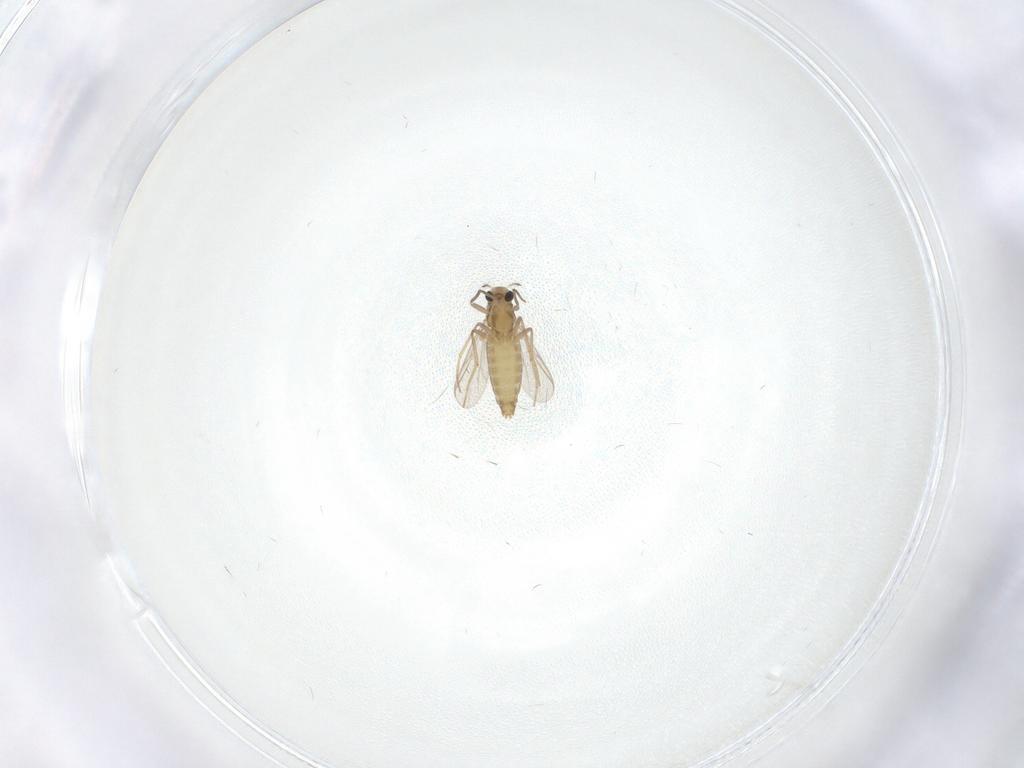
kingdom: Animalia
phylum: Arthropoda
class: Insecta
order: Diptera
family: Chironomidae
